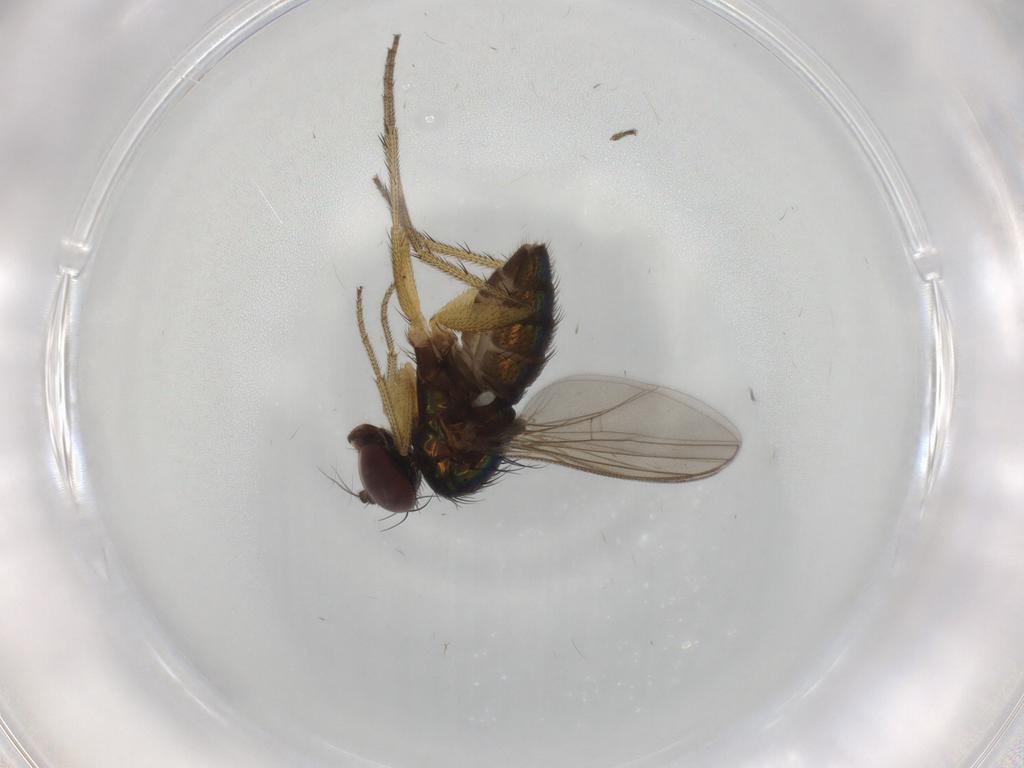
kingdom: Animalia
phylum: Arthropoda
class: Insecta
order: Diptera
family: Dolichopodidae
